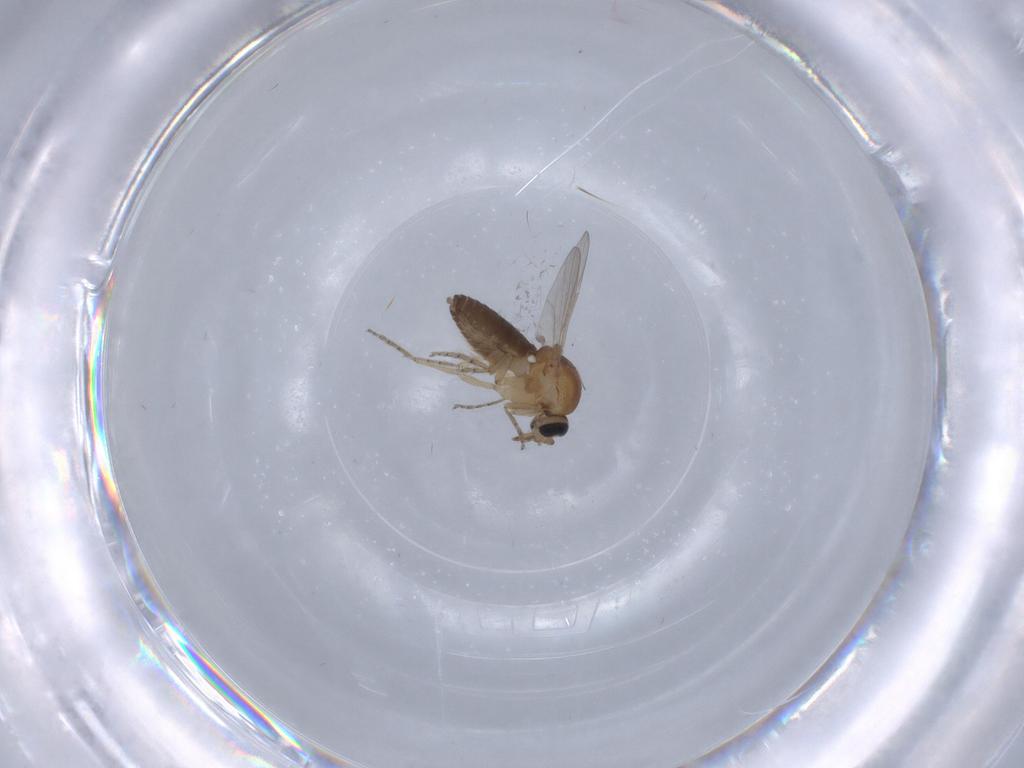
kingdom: Animalia
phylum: Arthropoda
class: Insecta
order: Diptera
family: Ceratopogonidae
